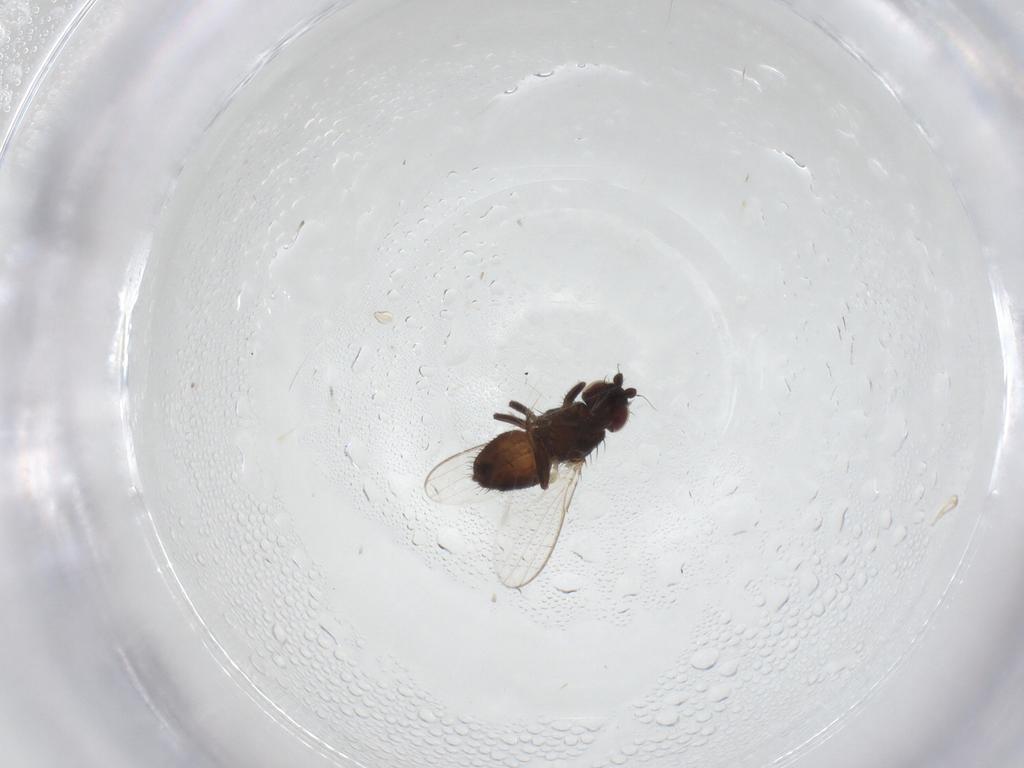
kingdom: Animalia
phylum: Arthropoda
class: Insecta
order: Diptera
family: Milichiidae
